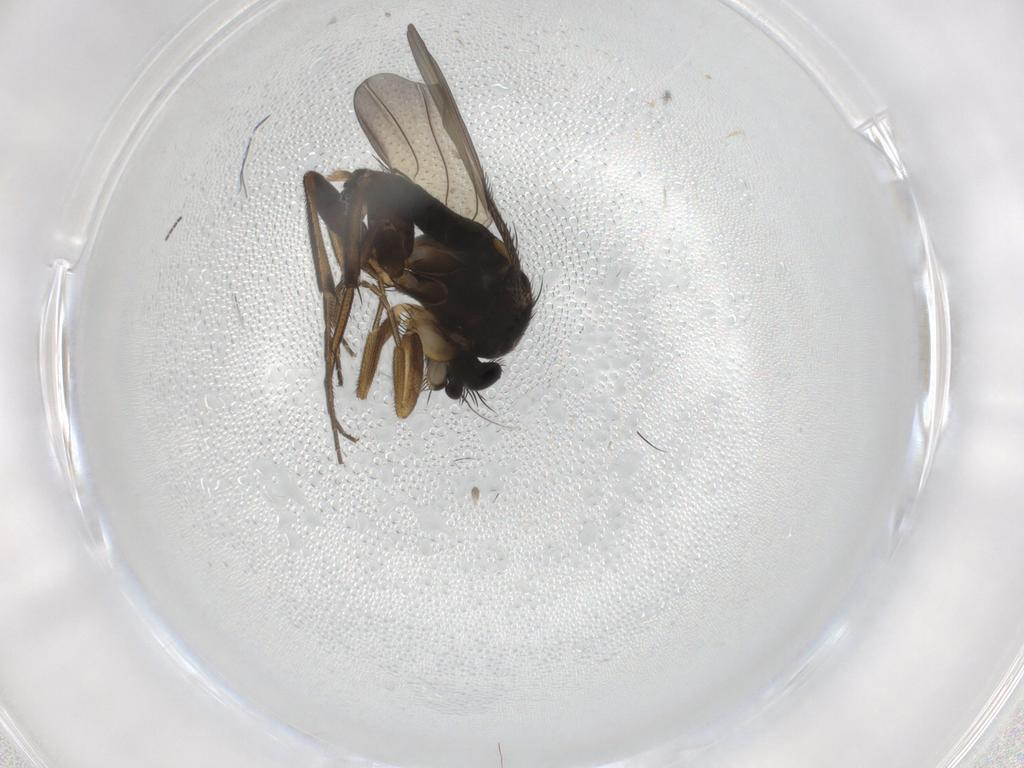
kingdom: Animalia
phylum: Arthropoda
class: Insecta
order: Diptera
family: Phoridae
